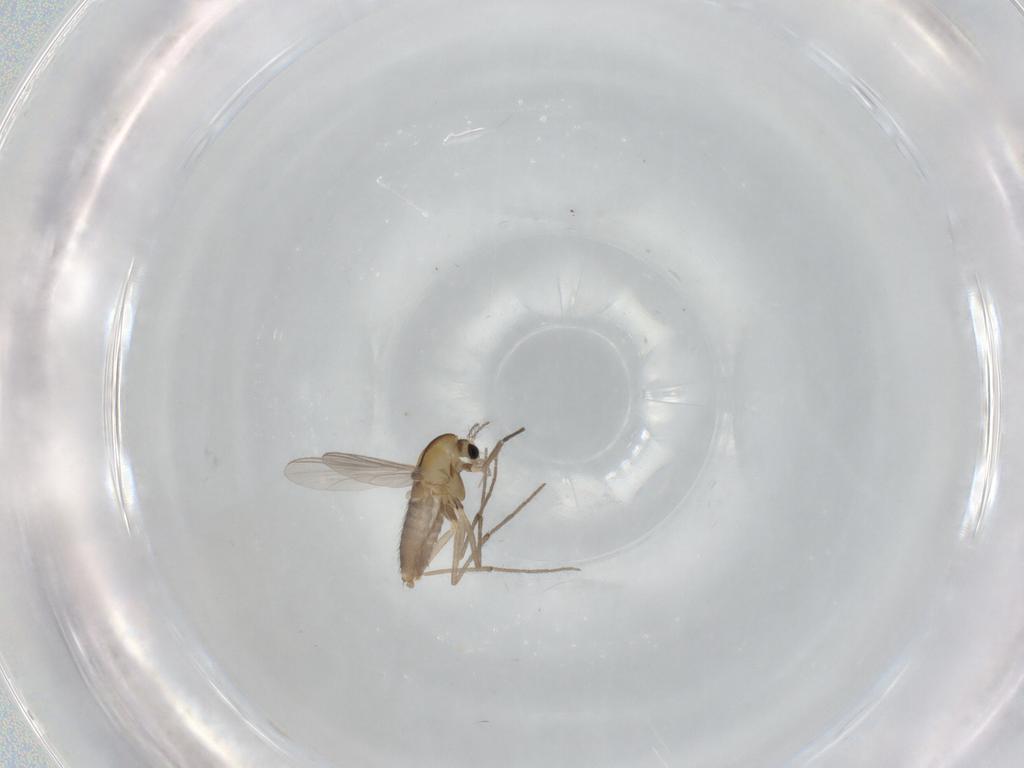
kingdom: Animalia
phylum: Arthropoda
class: Insecta
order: Diptera
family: Chironomidae
